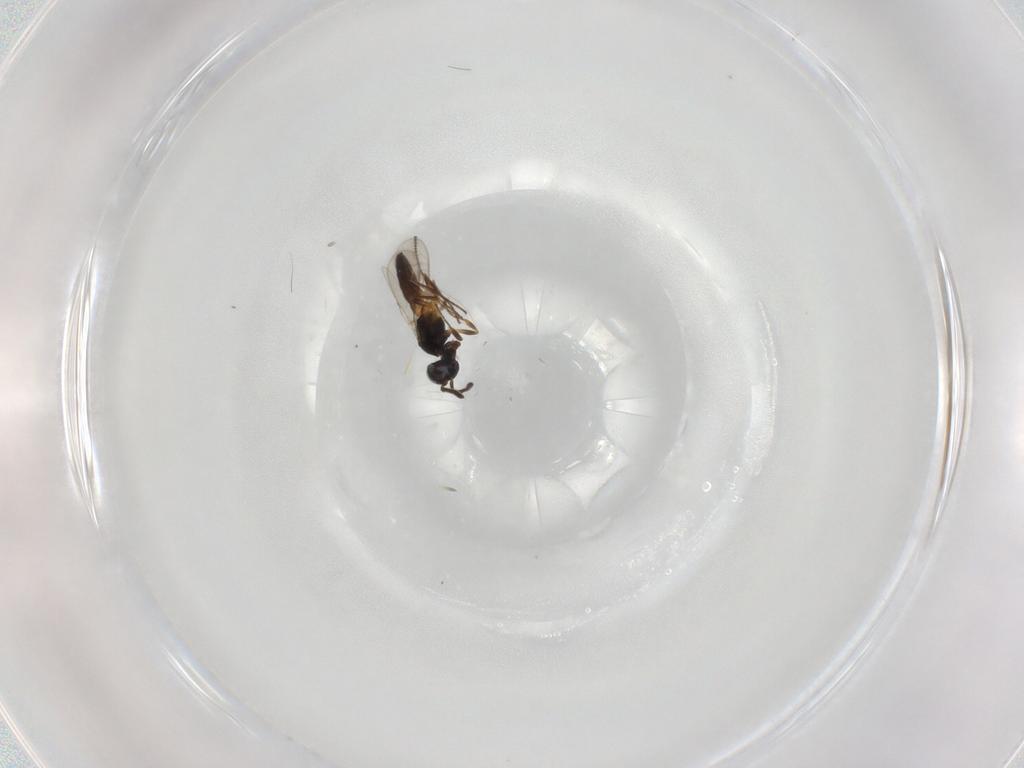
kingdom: Animalia
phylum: Arthropoda
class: Insecta
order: Hymenoptera
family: Scelionidae
